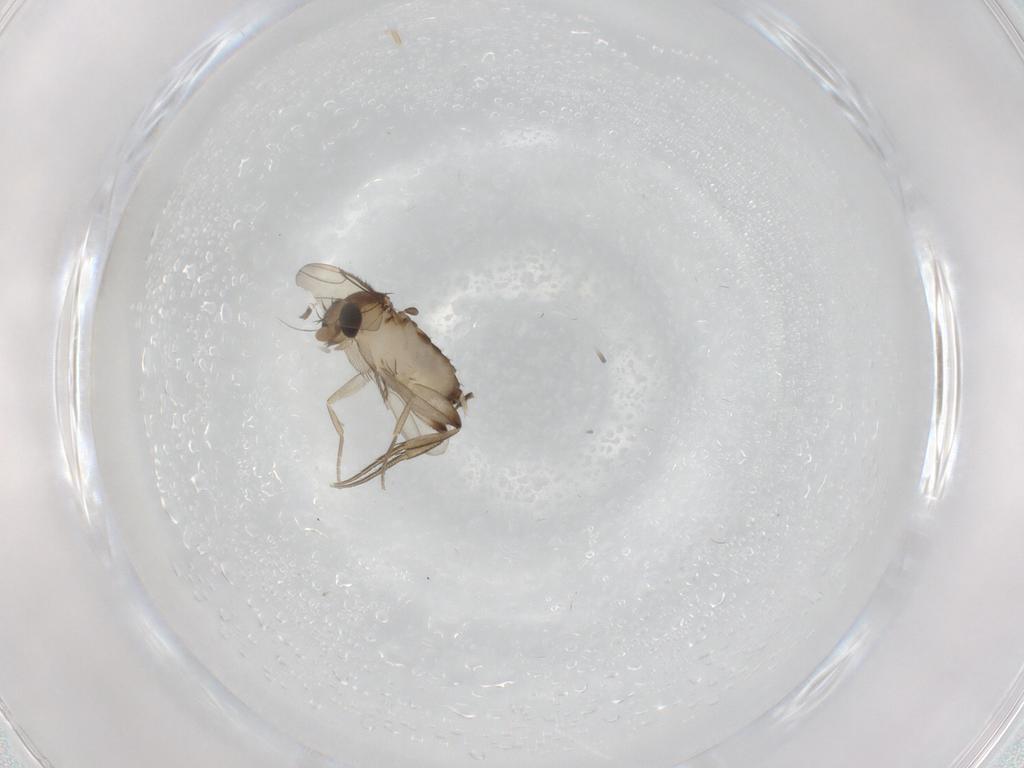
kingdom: Animalia
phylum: Arthropoda
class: Insecta
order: Diptera
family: Phoridae
